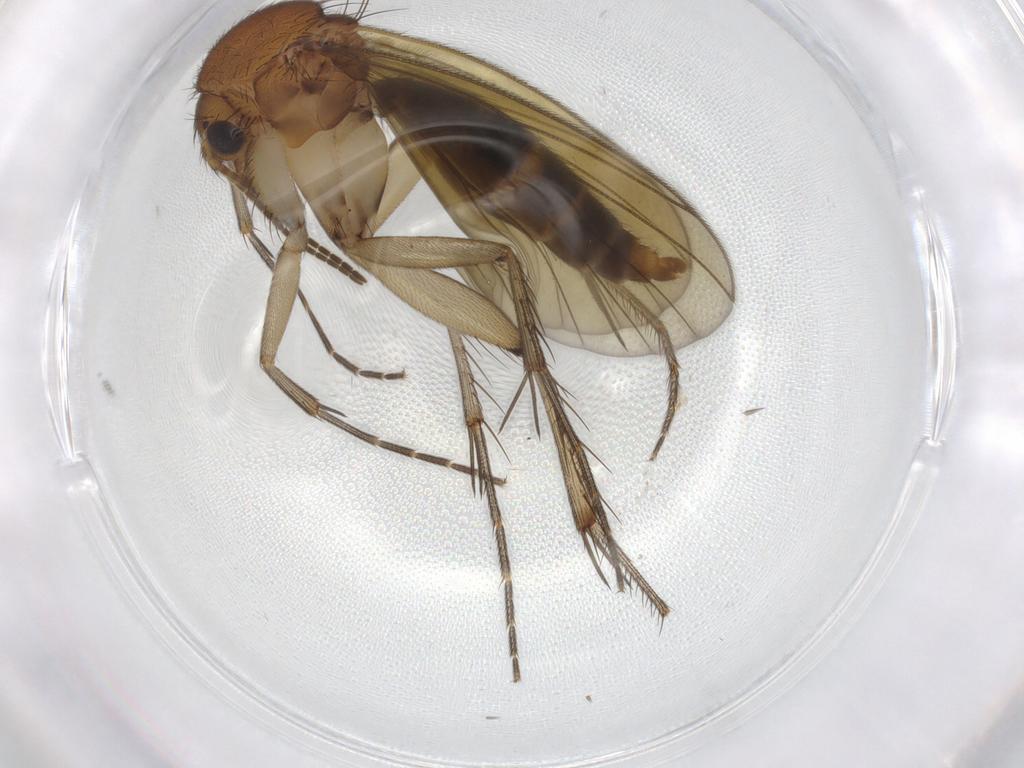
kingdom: Animalia
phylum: Arthropoda
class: Insecta
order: Diptera
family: Mycetophilidae
